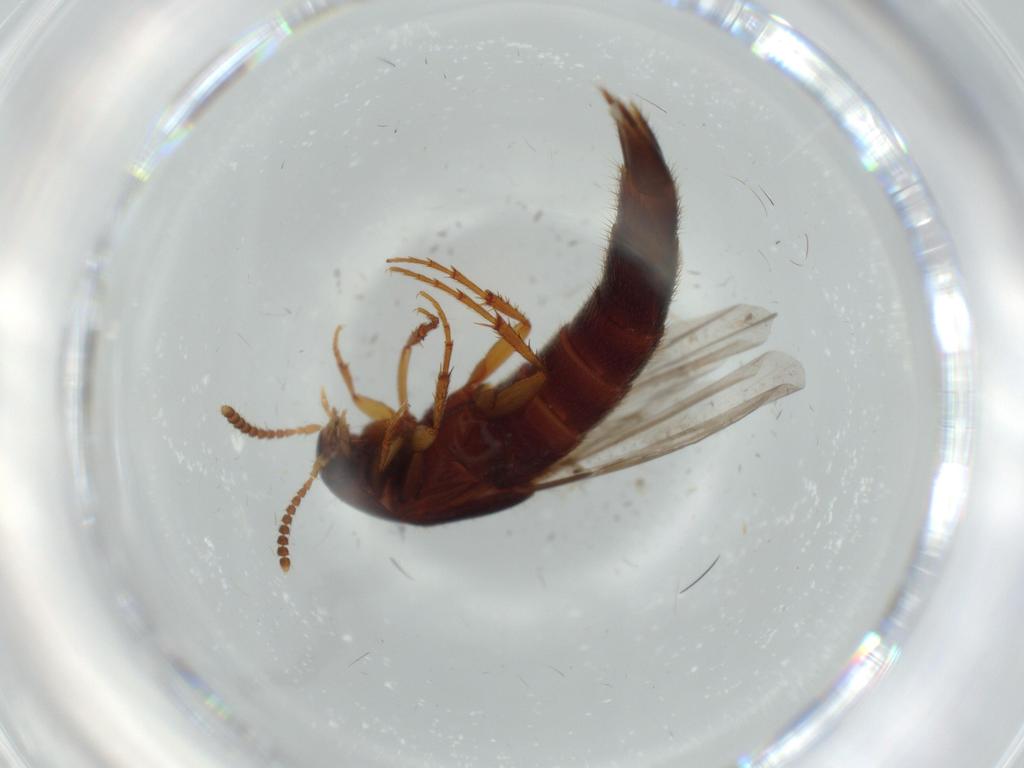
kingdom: Animalia
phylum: Arthropoda
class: Insecta
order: Coleoptera
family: Staphylinidae
